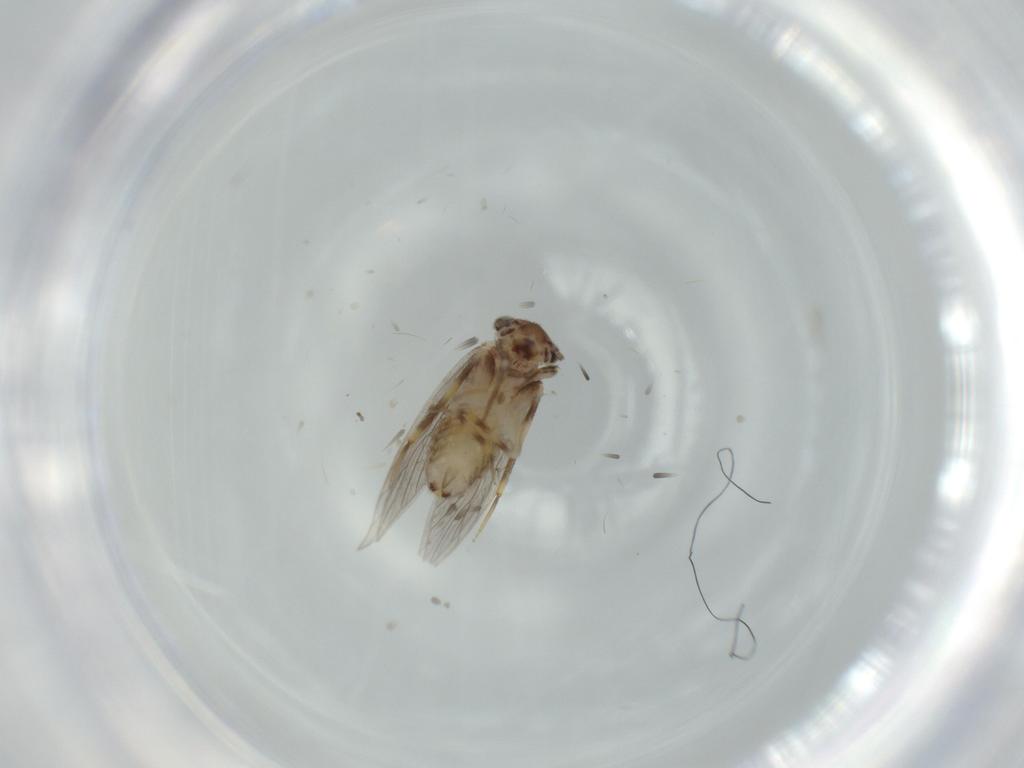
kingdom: Animalia
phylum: Arthropoda
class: Insecta
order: Psocodea
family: Lepidopsocidae
